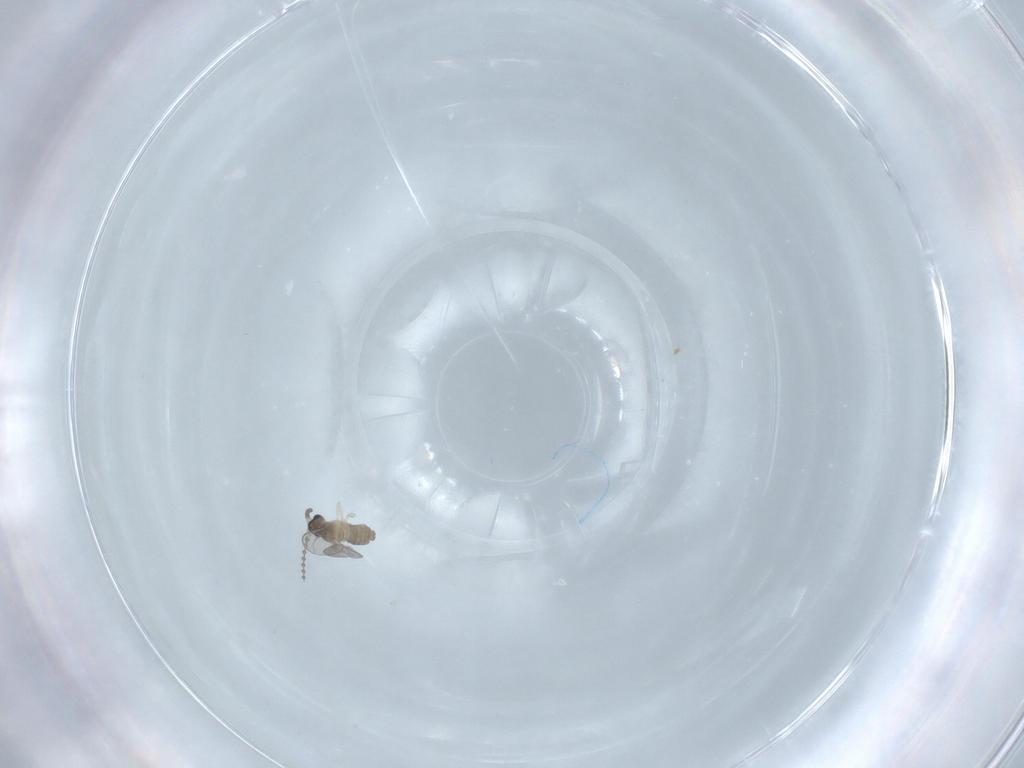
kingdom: Animalia
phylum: Arthropoda
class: Insecta
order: Diptera
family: Cecidomyiidae
